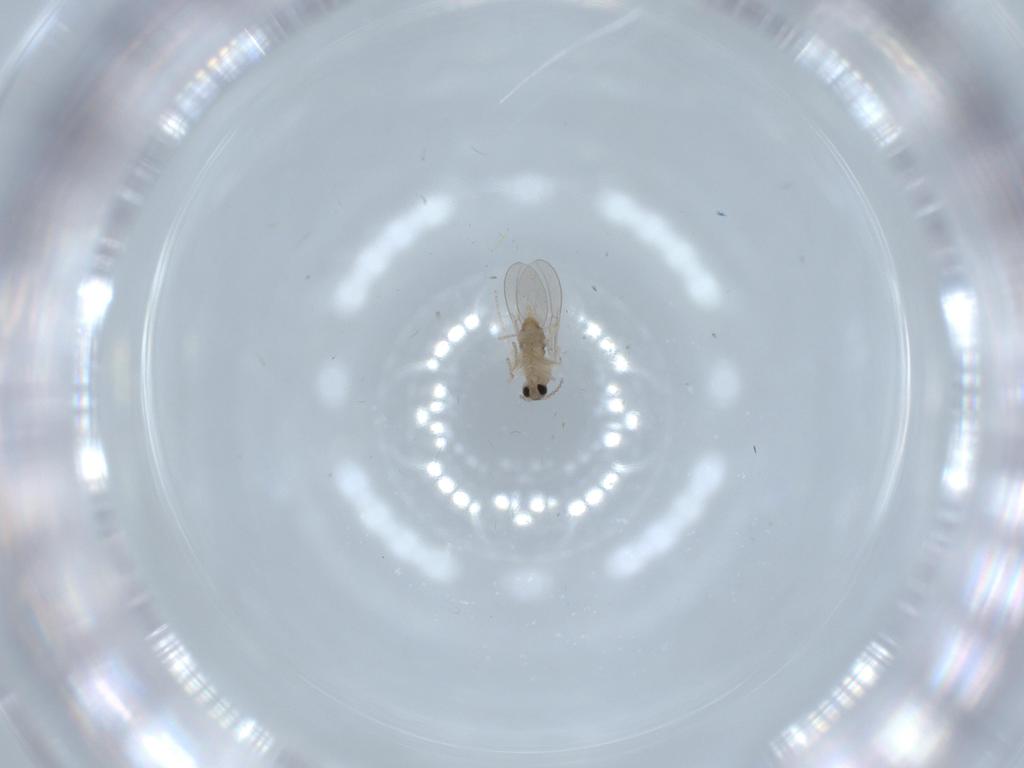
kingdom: Animalia
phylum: Arthropoda
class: Insecta
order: Diptera
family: Cecidomyiidae
